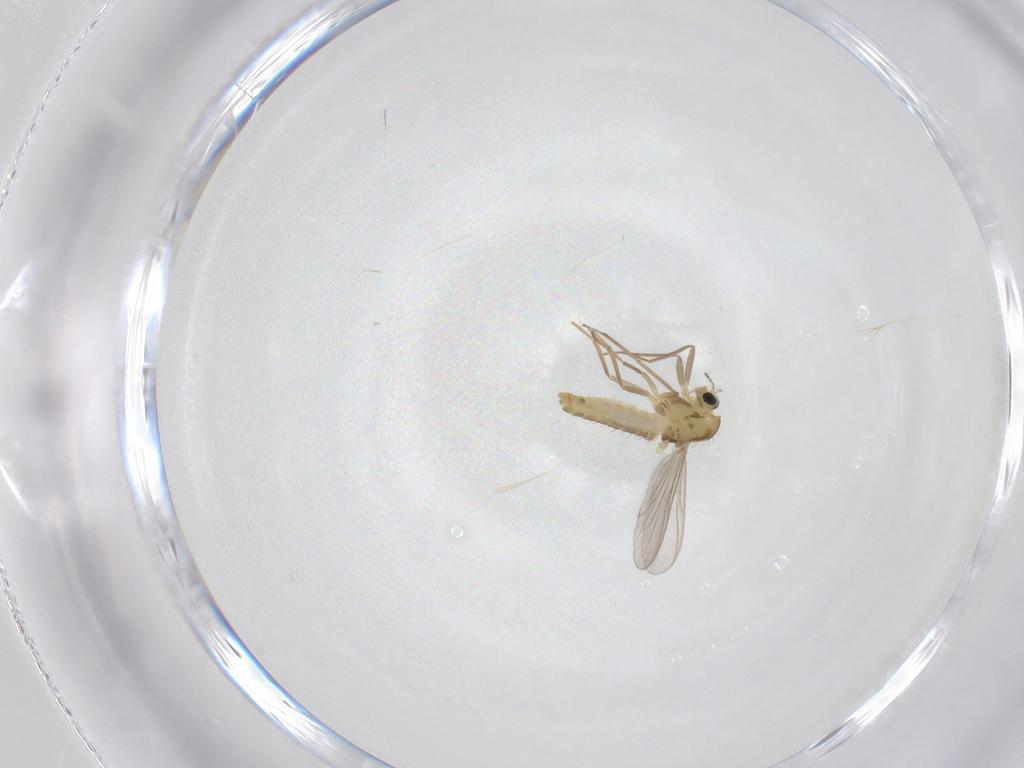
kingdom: Animalia
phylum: Arthropoda
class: Insecta
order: Diptera
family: Chironomidae
